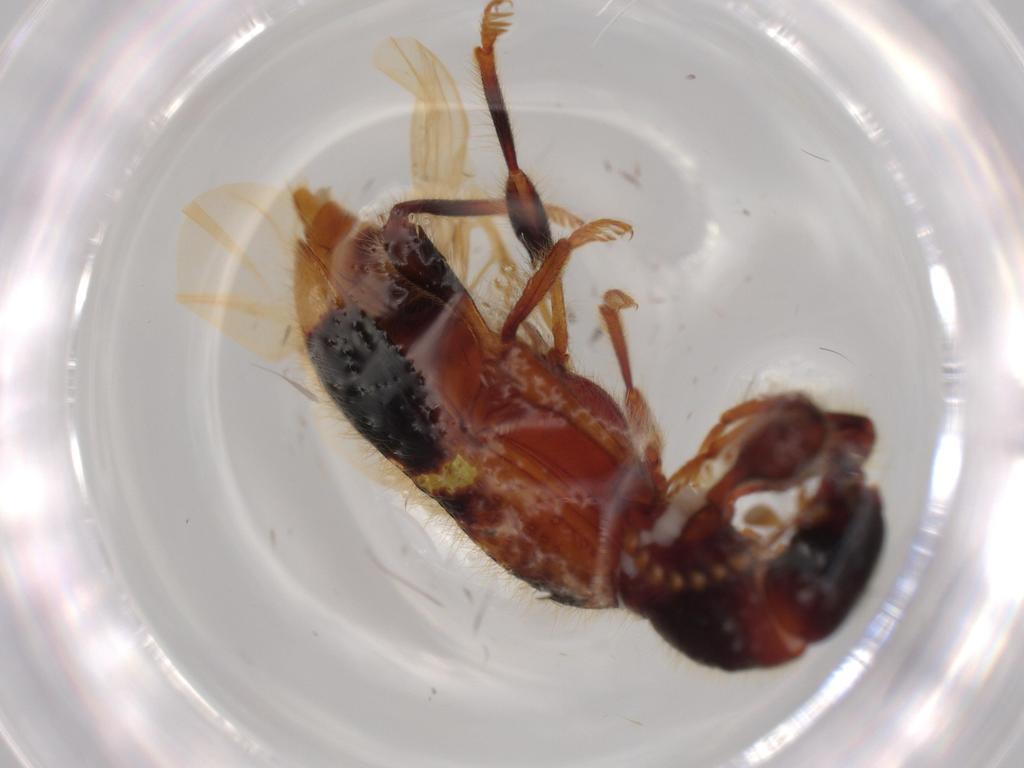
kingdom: Animalia
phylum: Arthropoda
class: Insecta
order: Coleoptera
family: Cleridae
